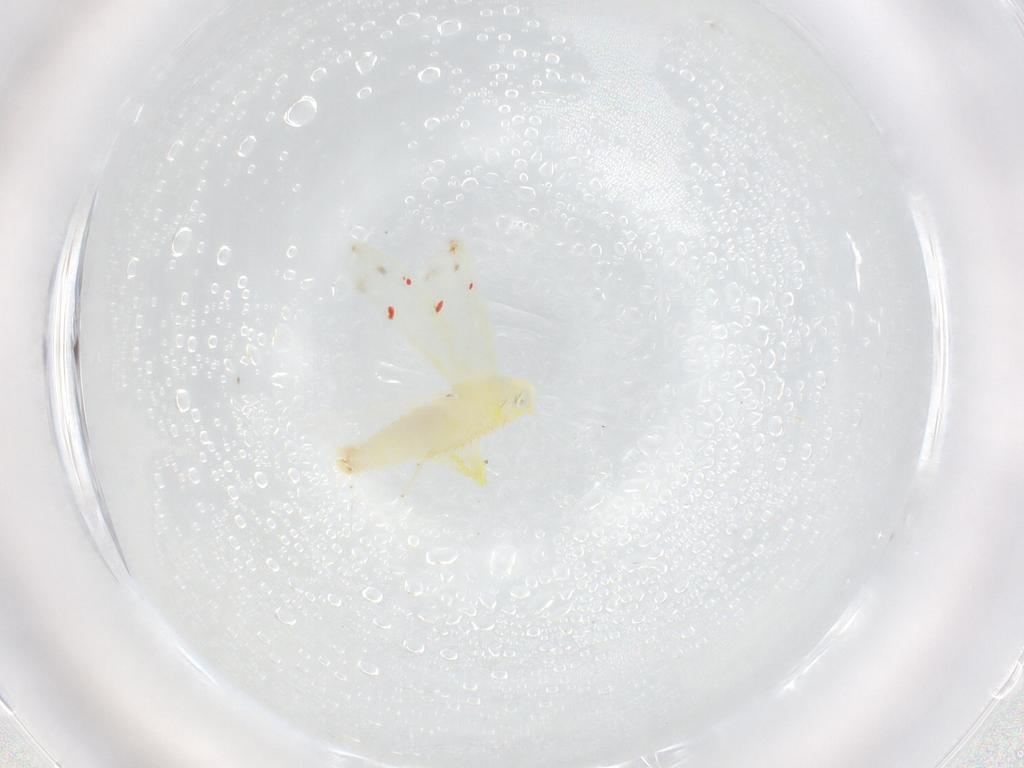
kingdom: Animalia
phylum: Arthropoda
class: Insecta
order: Hemiptera
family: Cicadellidae
